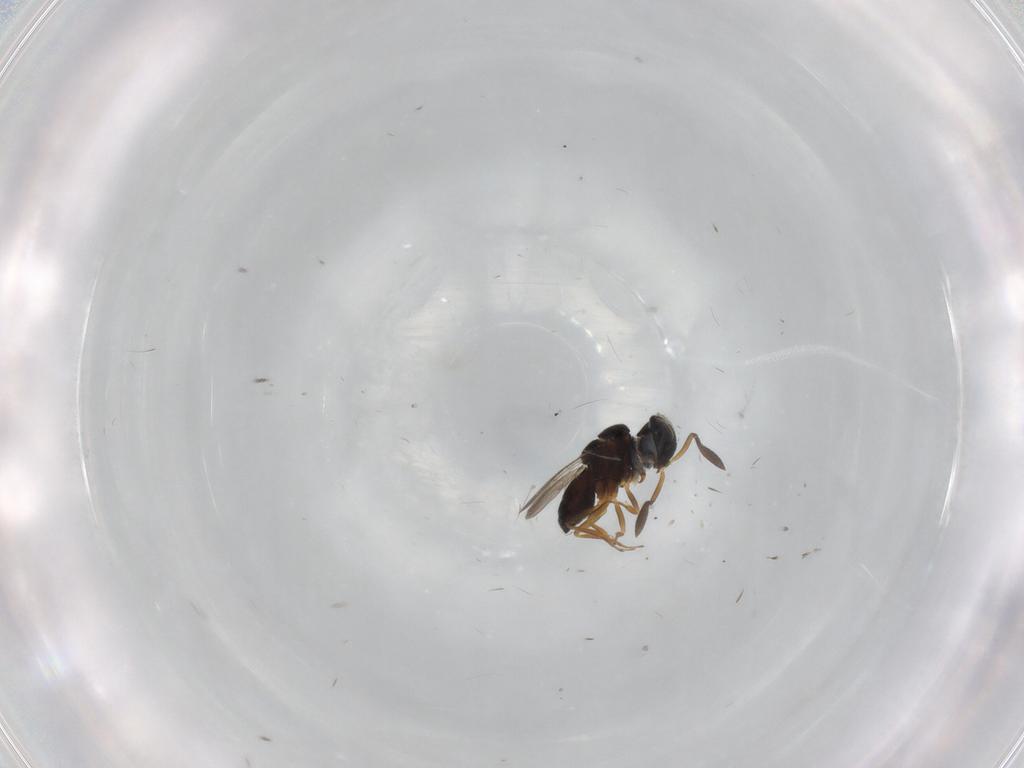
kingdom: Animalia
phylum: Arthropoda
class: Insecta
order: Coleoptera
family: Curculionidae
